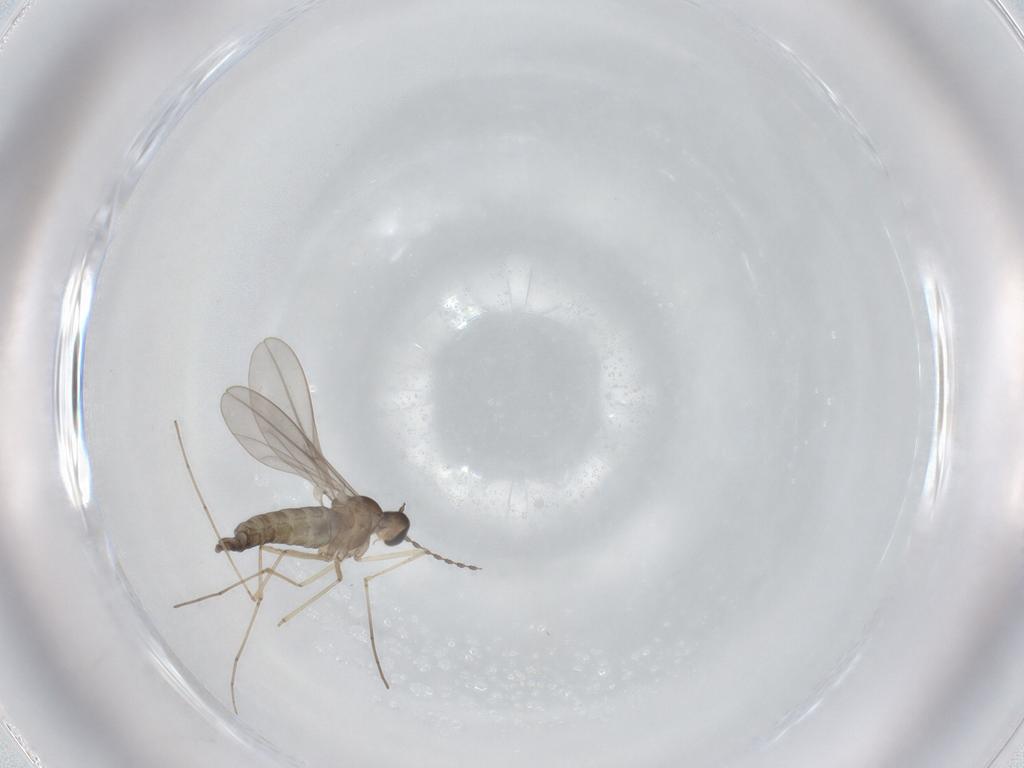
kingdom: Animalia
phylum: Arthropoda
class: Insecta
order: Diptera
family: Cecidomyiidae
